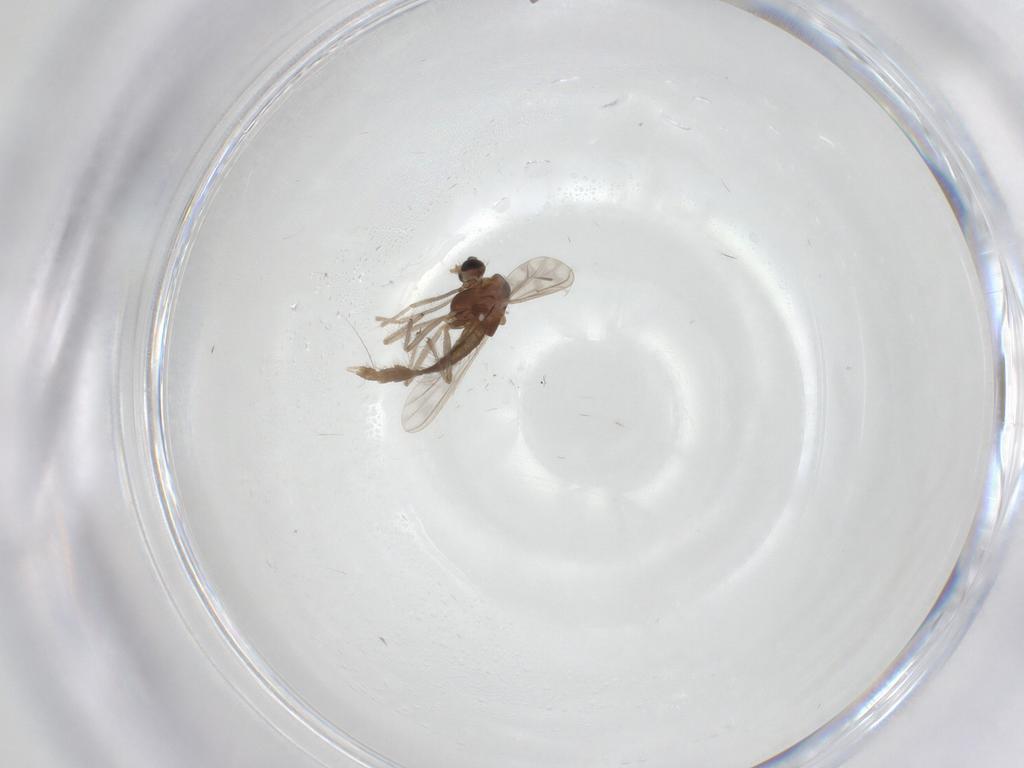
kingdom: Animalia
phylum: Arthropoda
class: Insecta
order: Diptera
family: Chironomidae
